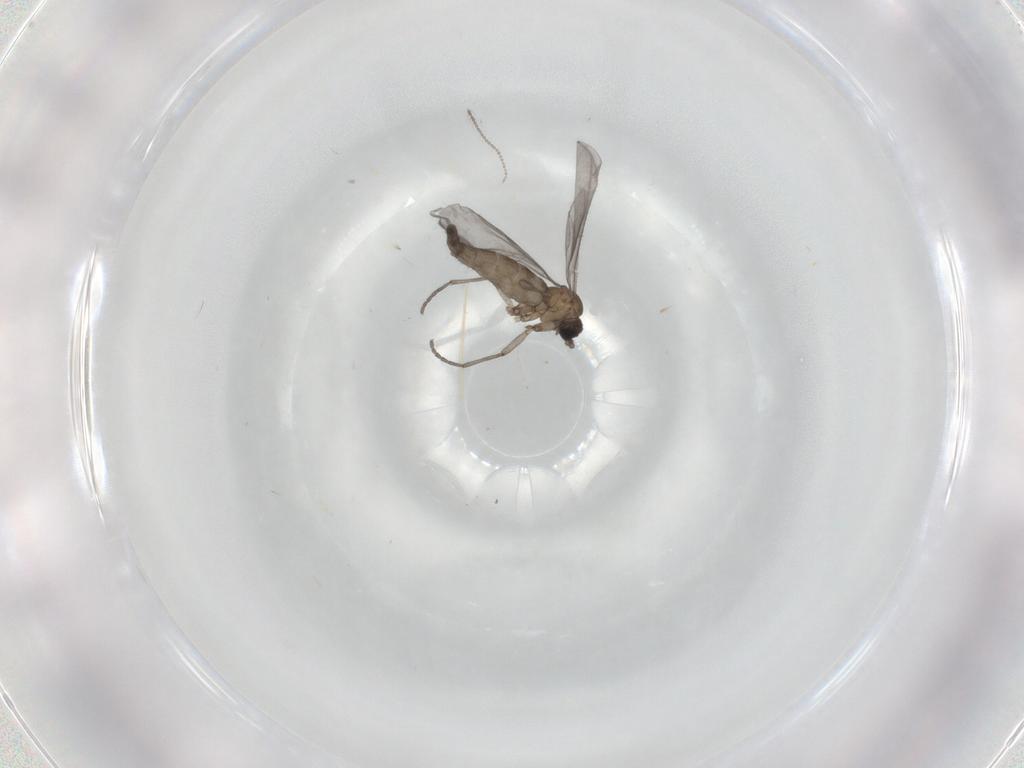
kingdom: Animalia
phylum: Arthropoda
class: Insecta
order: Diptera
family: Sciaridae
